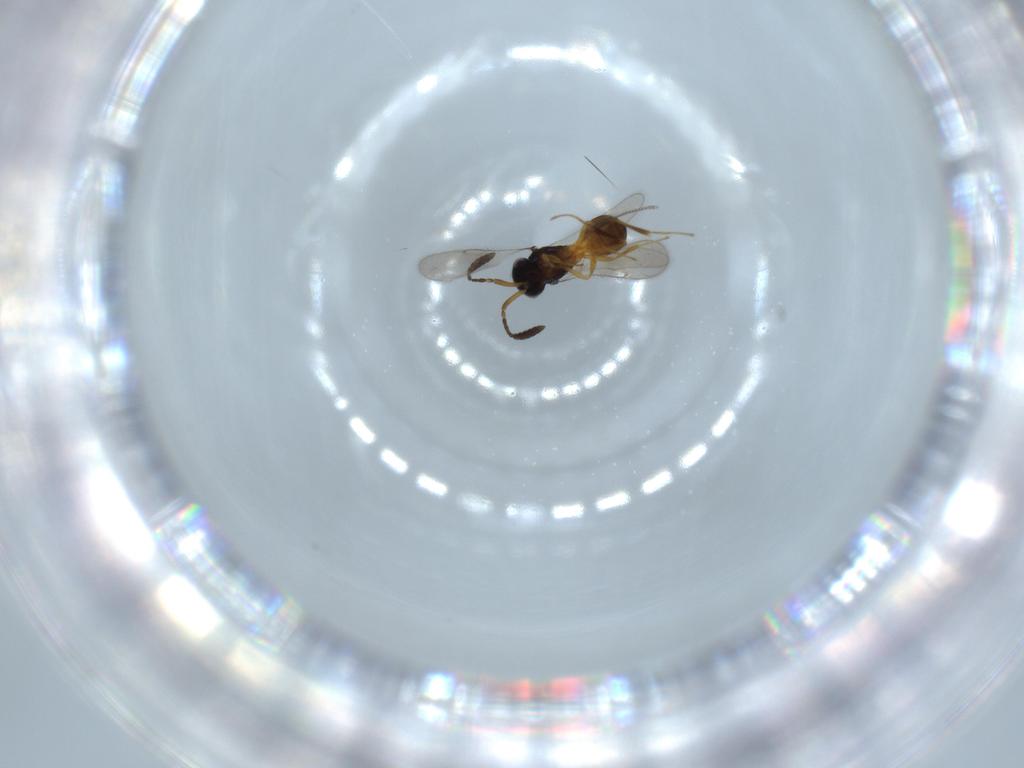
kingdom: Animalia
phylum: Arthropoda
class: Insecta
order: Hymenoptera
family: Scelionidae
